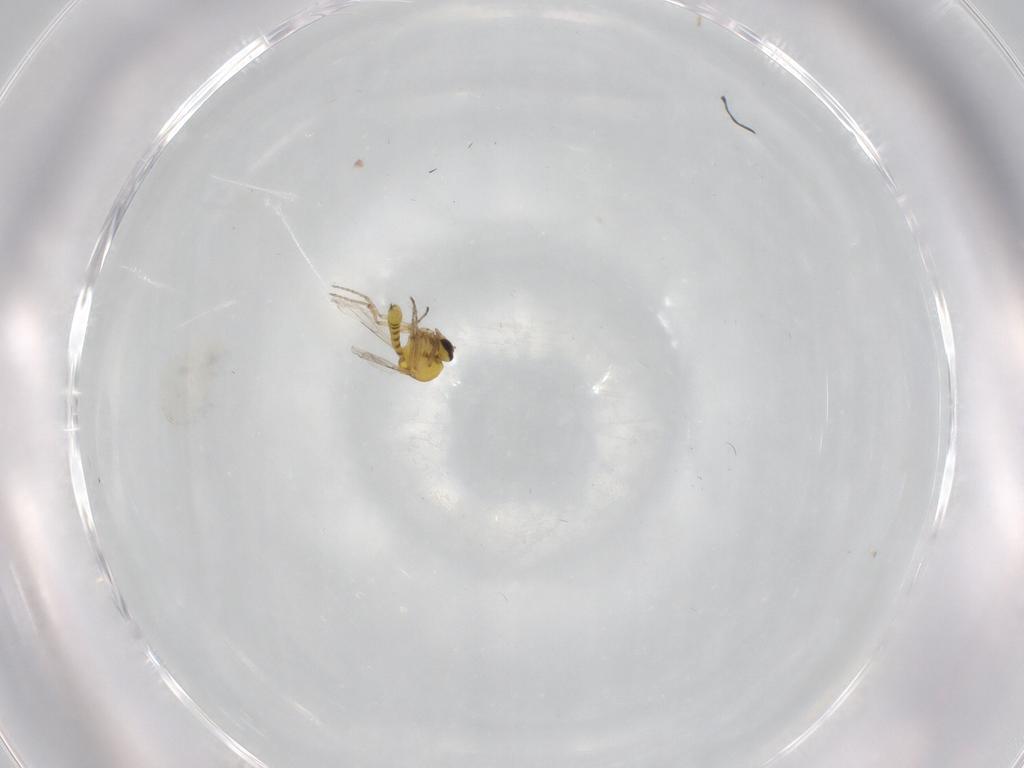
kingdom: Animalia
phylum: Arthropoda
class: Insecta
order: Diptera
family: Ceratopogonidae
